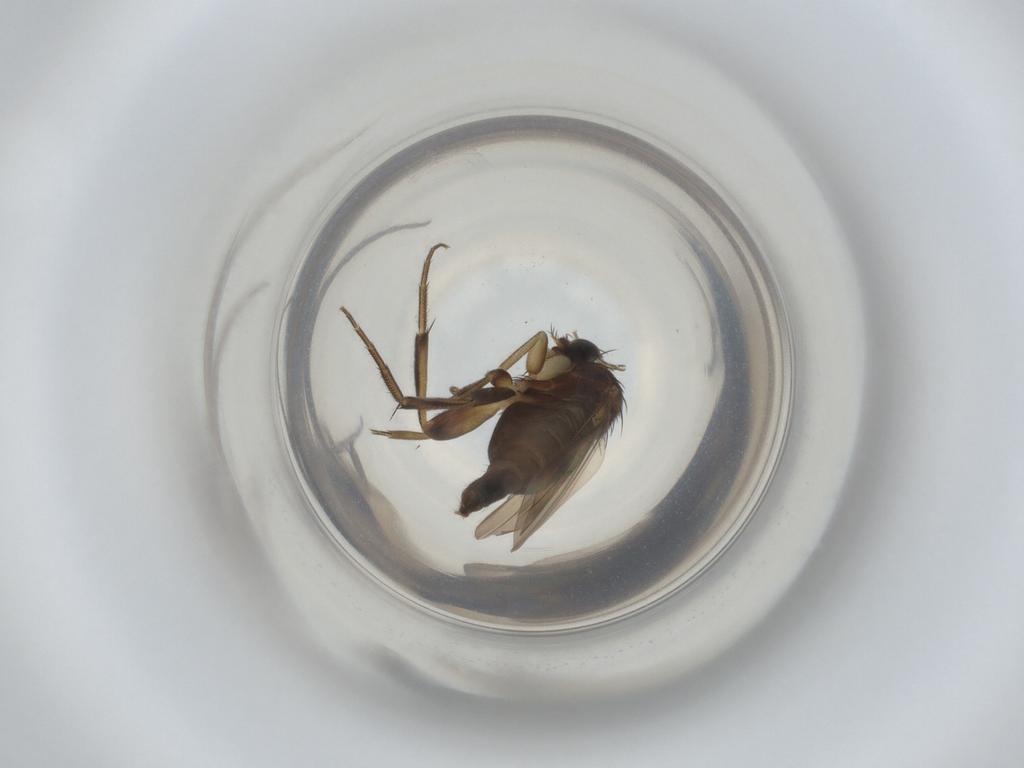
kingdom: Animalia
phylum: Arthropoda
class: Insecta
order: Diptera
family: Phoridae
